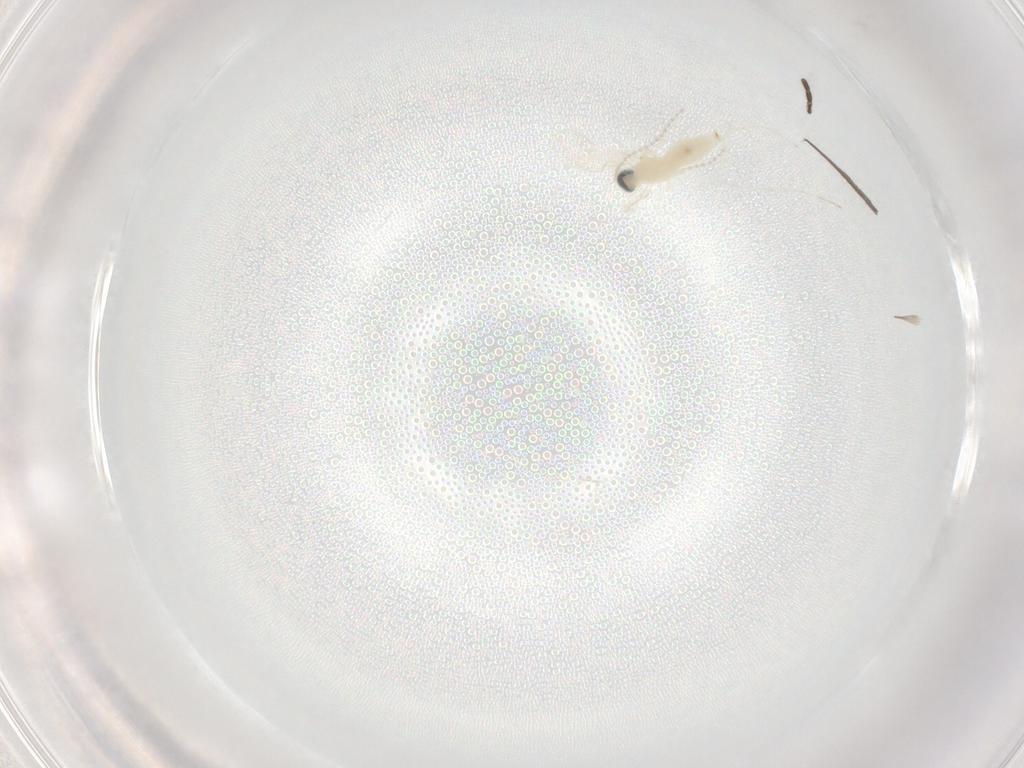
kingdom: Animalia
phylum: Arthropoda
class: Insecta
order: Diptera
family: Mycetophilidae
